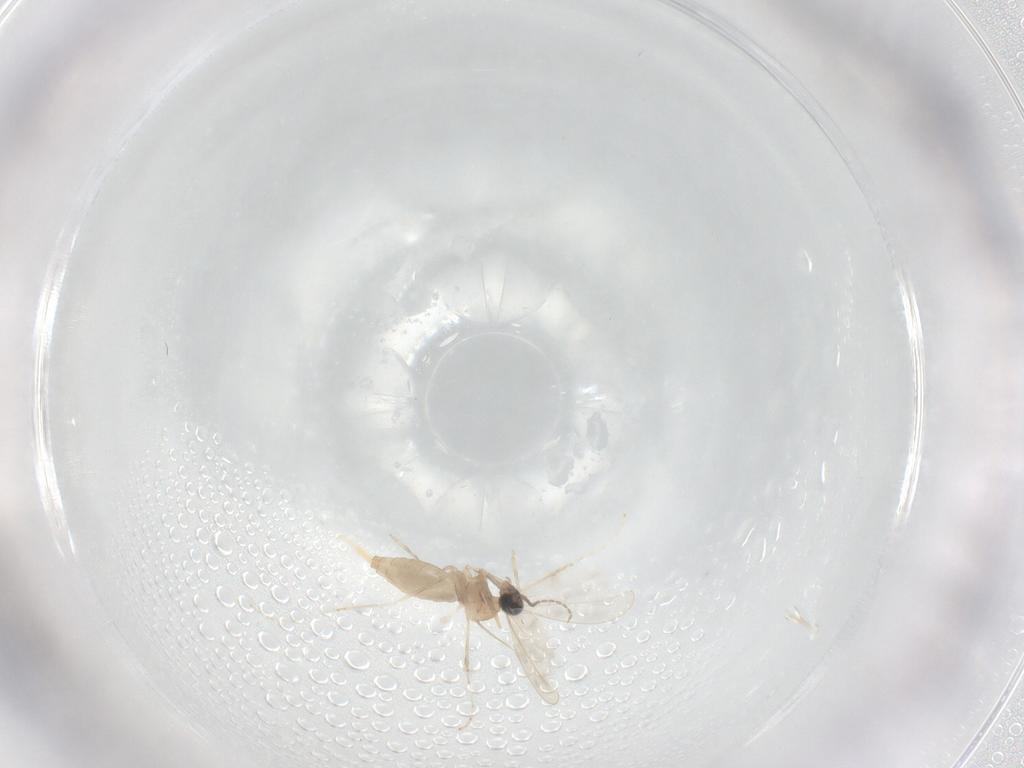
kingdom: Animalia
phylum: Arthropoda
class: Insecta
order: Diptera
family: Cecidomyiidae
